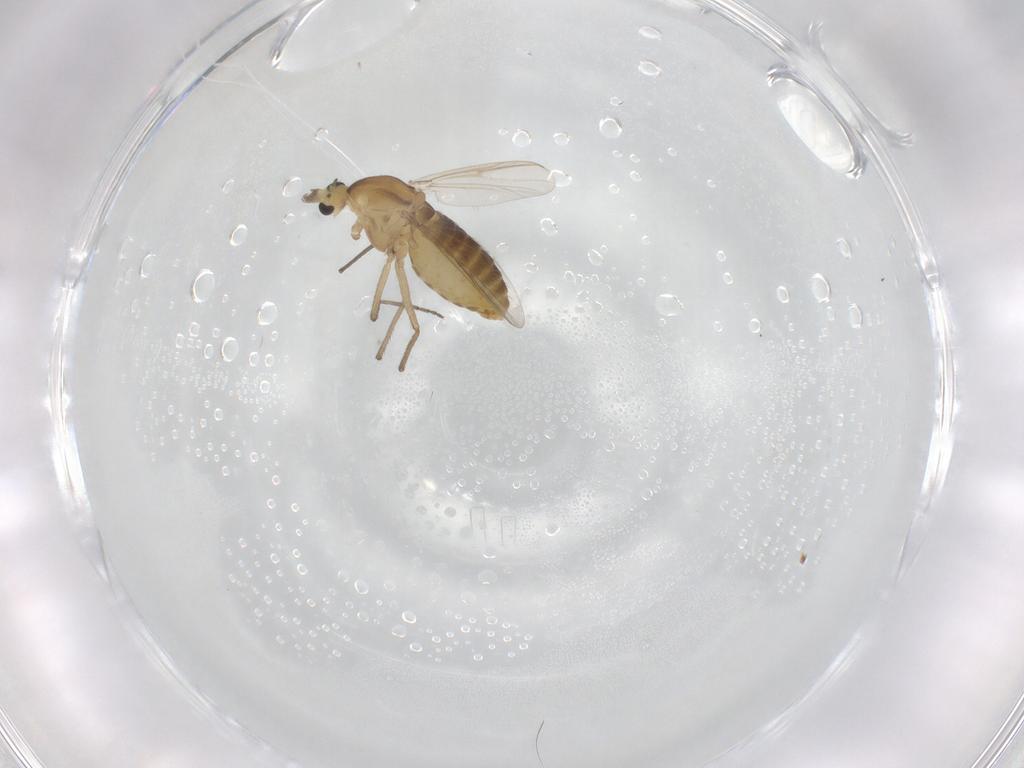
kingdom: Animalia
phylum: Arthropoda
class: Insecta
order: Diptera
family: Chironomidae
